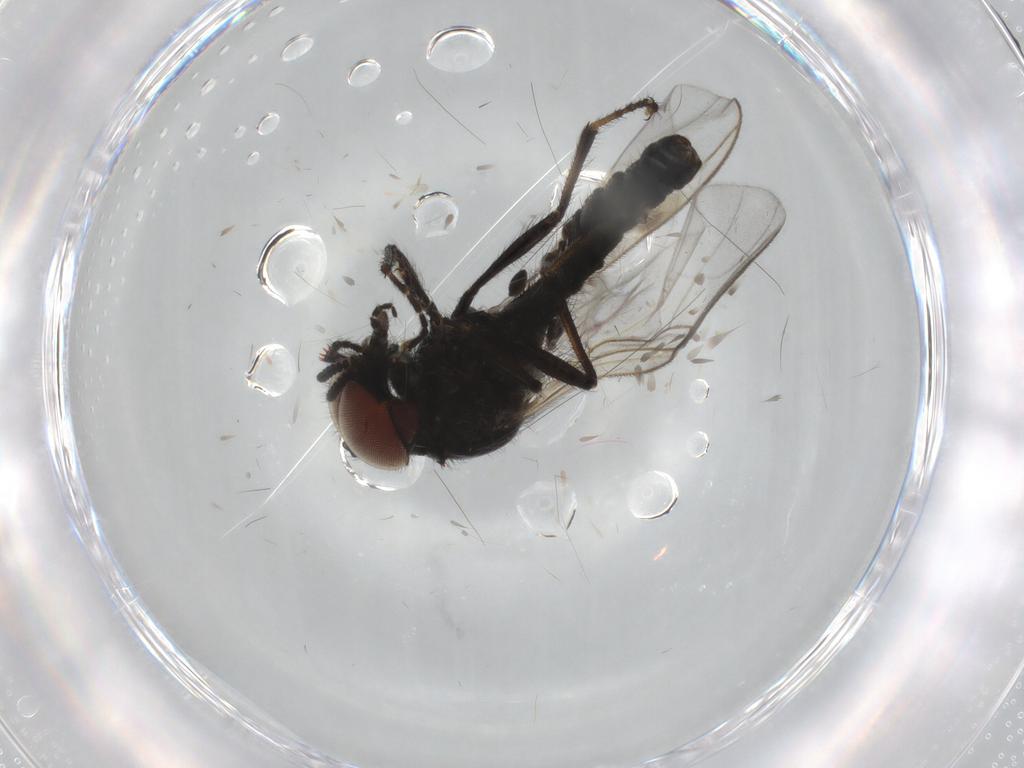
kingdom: Animalia
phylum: Arthropoda
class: Insecta
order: Diptera
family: Bibionidae
